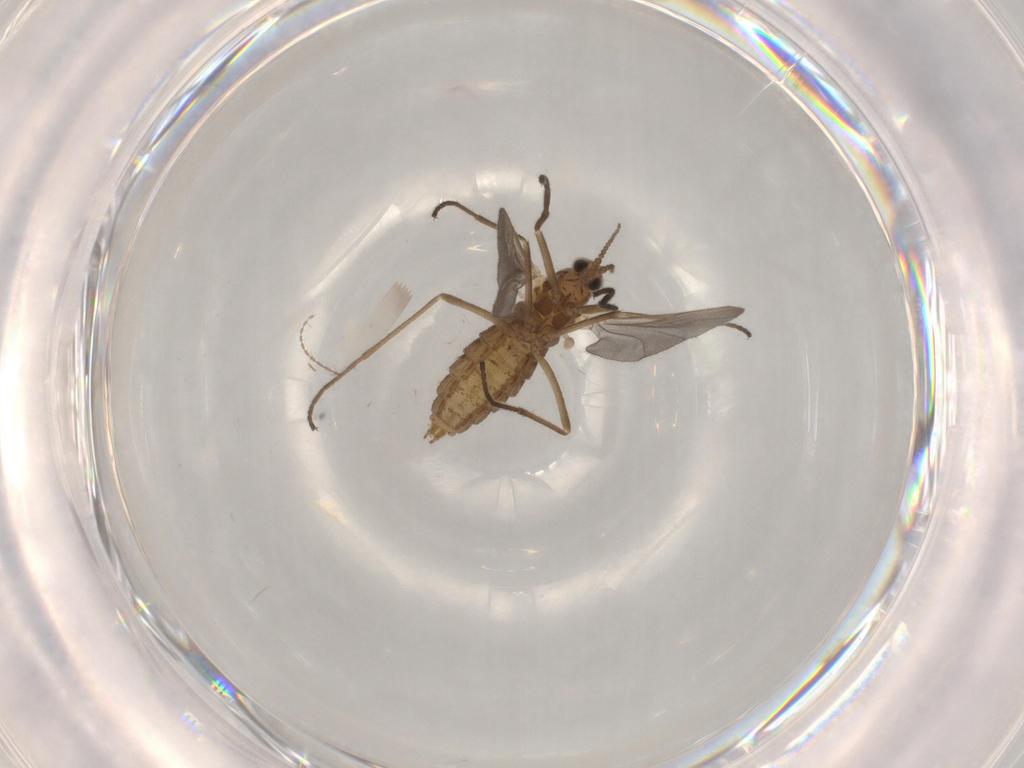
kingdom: Animalia
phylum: Arthropoda
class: Insecta
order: Diptera
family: Cecidomyiidae
